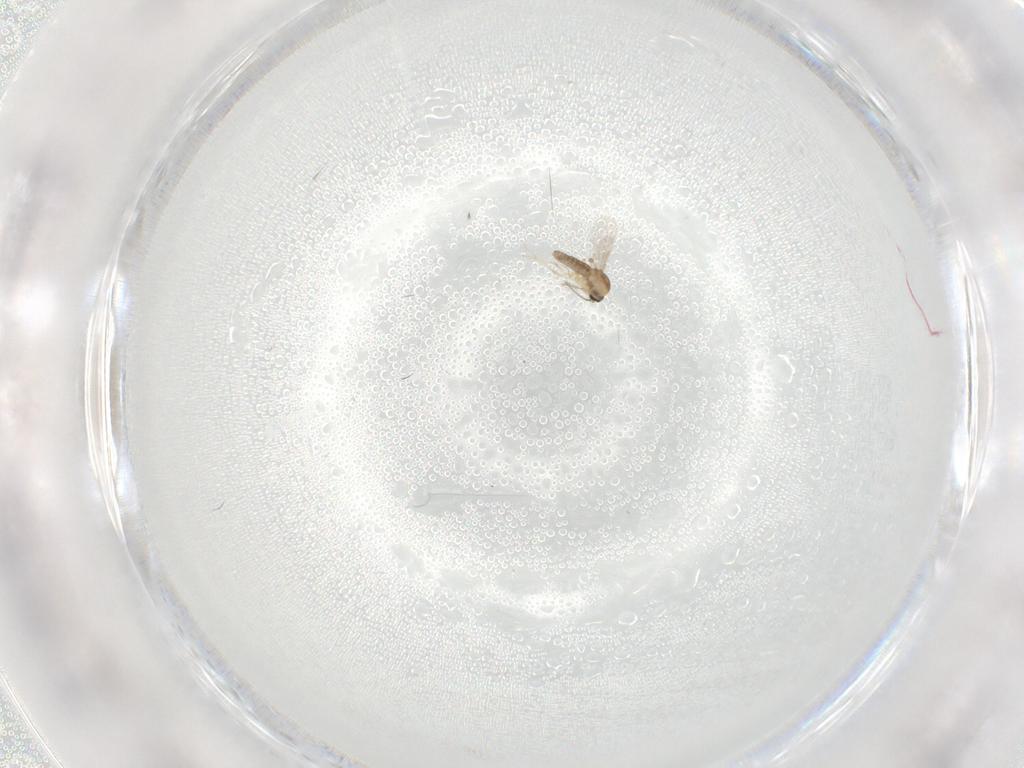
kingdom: Animalia
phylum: Arthropoda
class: Insecta
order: Diptera
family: Ceratopogonidae
